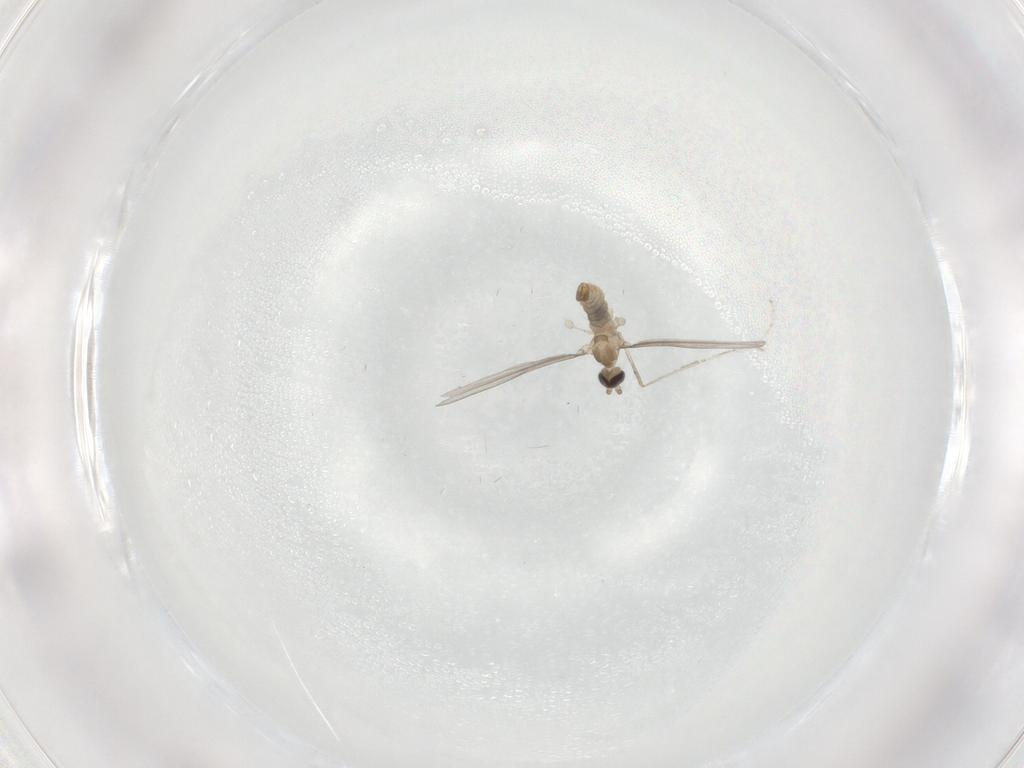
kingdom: Animalia
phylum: Arthropoda
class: Insecta
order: Diptera
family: Cecidomyiidae
